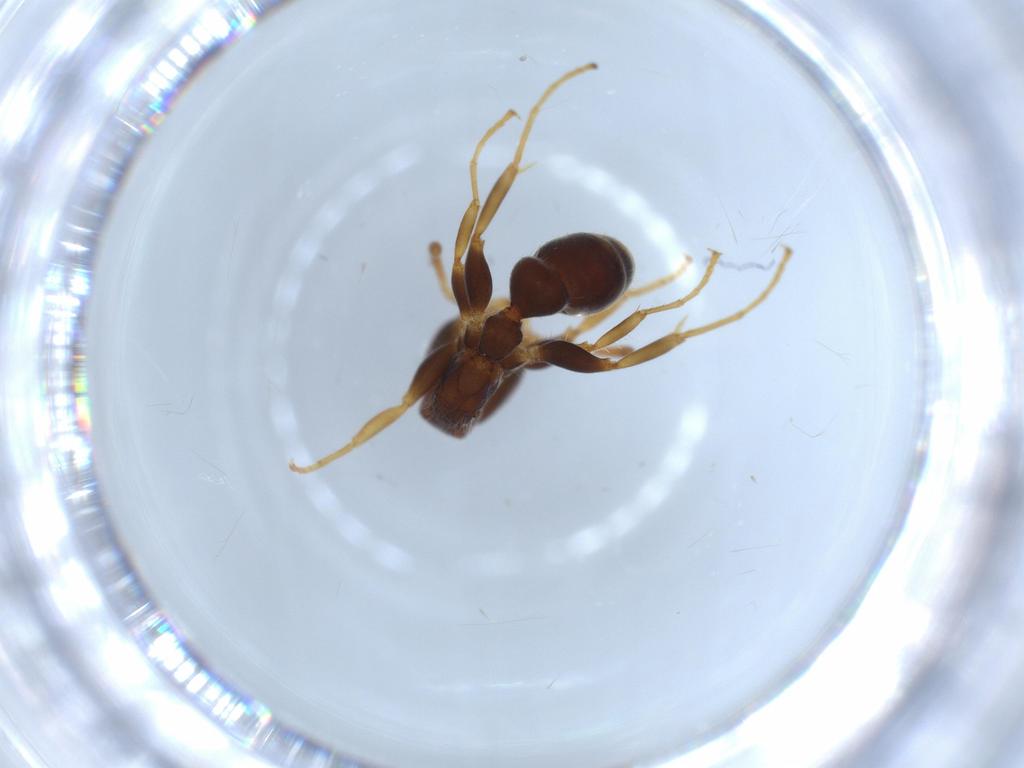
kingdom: Animalia
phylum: Arthropoda
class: Insecta
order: Hymenoptera
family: Formicidae
